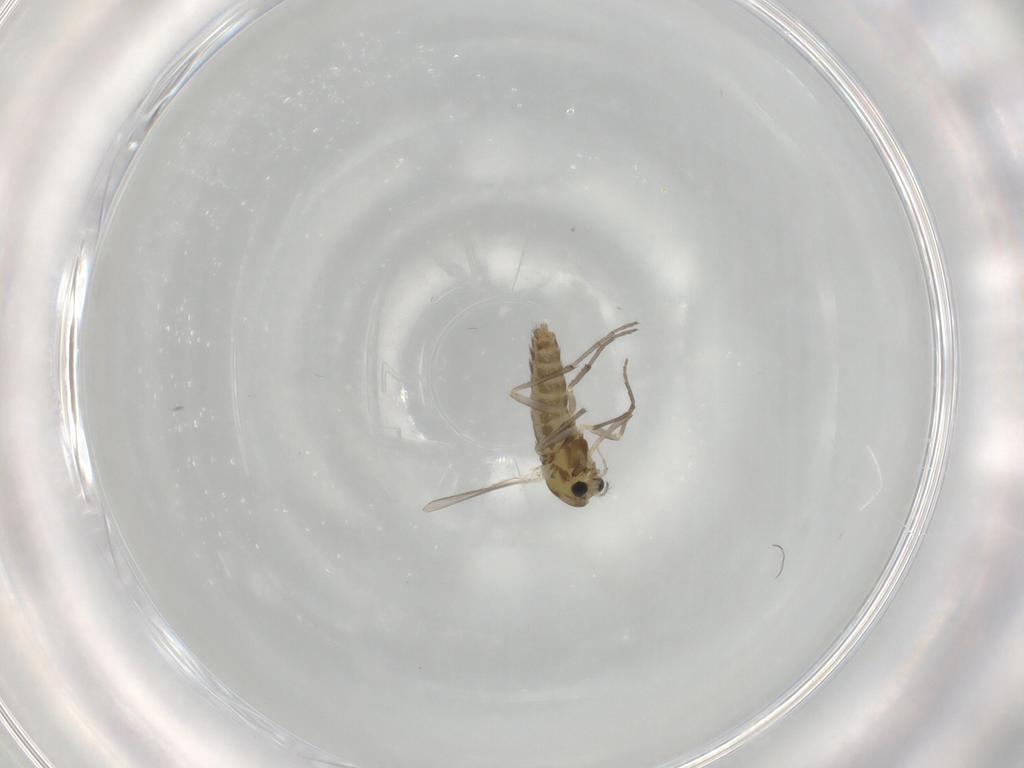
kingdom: Animalia
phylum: Arthropoda
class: Insecta
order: Diptera
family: Chironomidae
